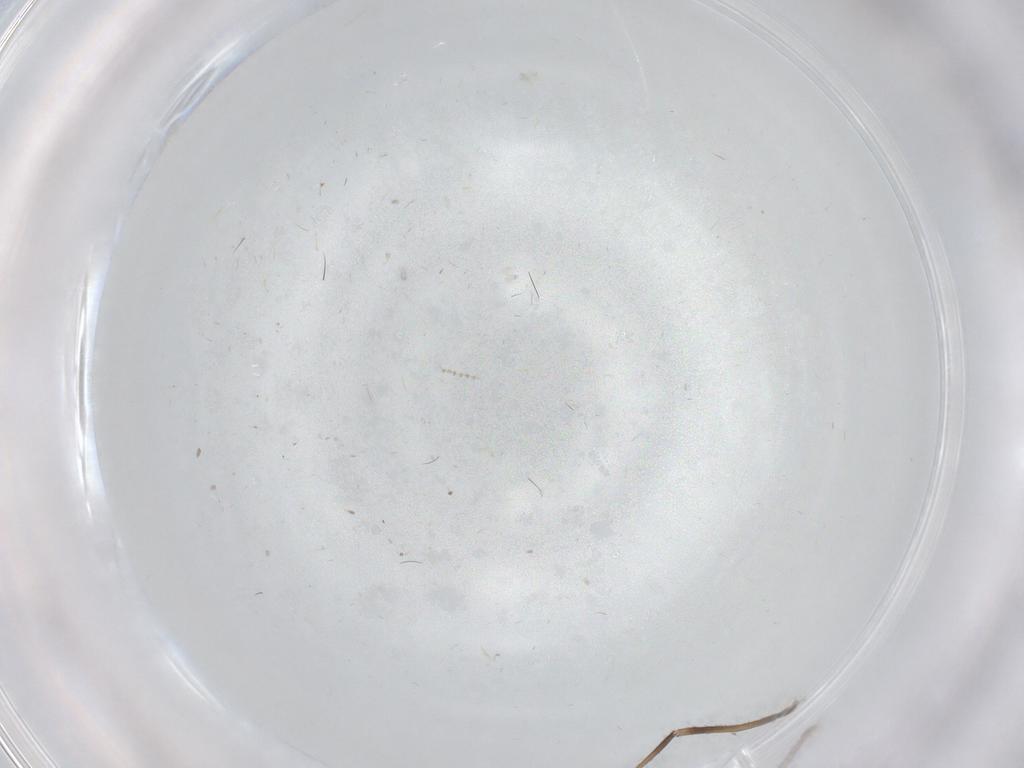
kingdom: Animalia
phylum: Arthropoda
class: Insecta
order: Diptera
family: Chironomidae
